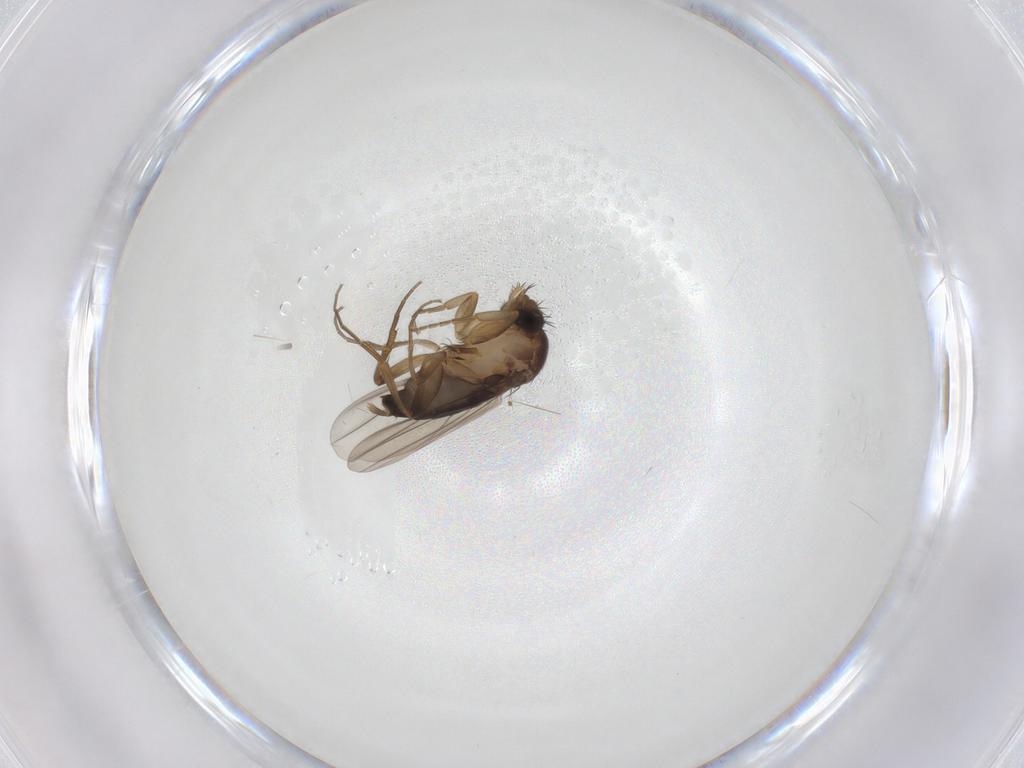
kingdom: Animalia
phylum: Arthropoda
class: Insecta
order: Diptera
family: Phoridae
